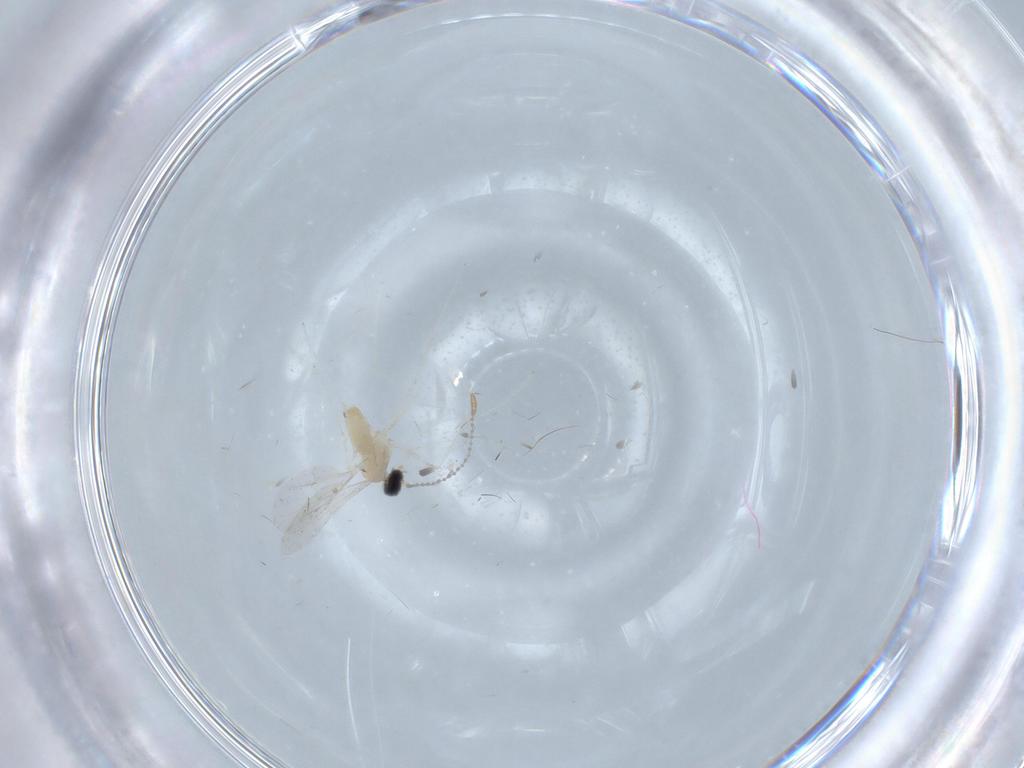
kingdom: Animalia
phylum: Arthropoda
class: Insecta
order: Diptera
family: Cecidomyiidae
